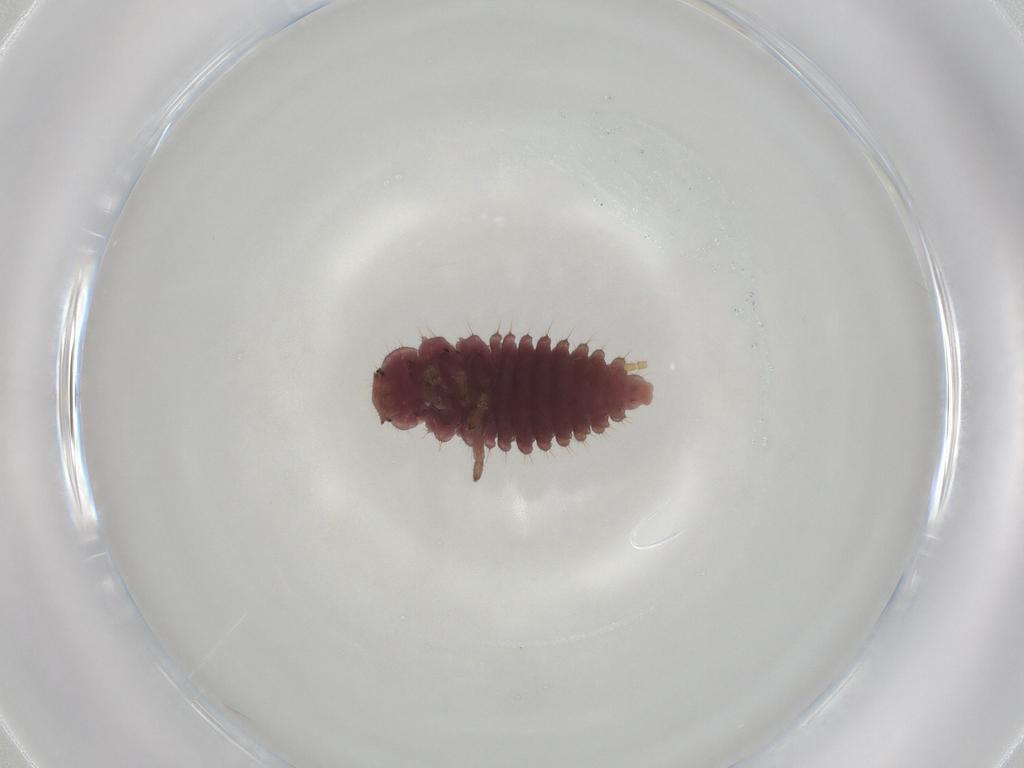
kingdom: Animalia
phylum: Arthropoda
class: Insecta
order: Coleoptera
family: Coccinellidae
